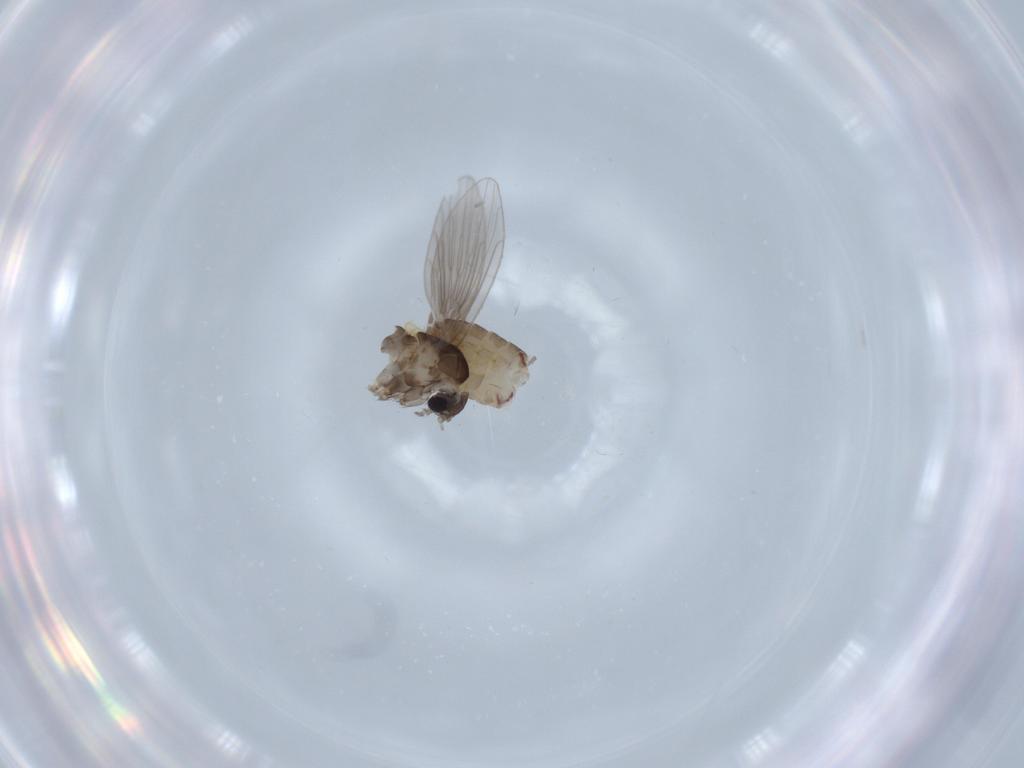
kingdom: Animalia
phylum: Arthropoda
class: Insecta
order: Diptera
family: Psychodidae
